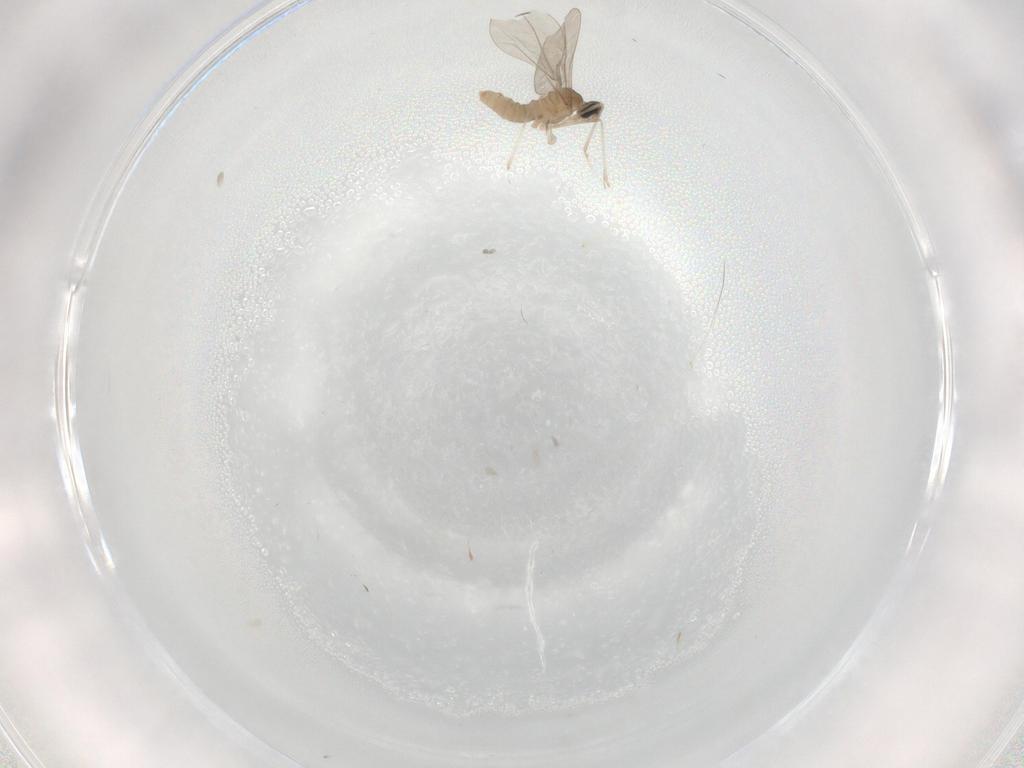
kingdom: Animalia
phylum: Arthropoda
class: Insecta
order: Diptera
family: Cecidomyiidae
